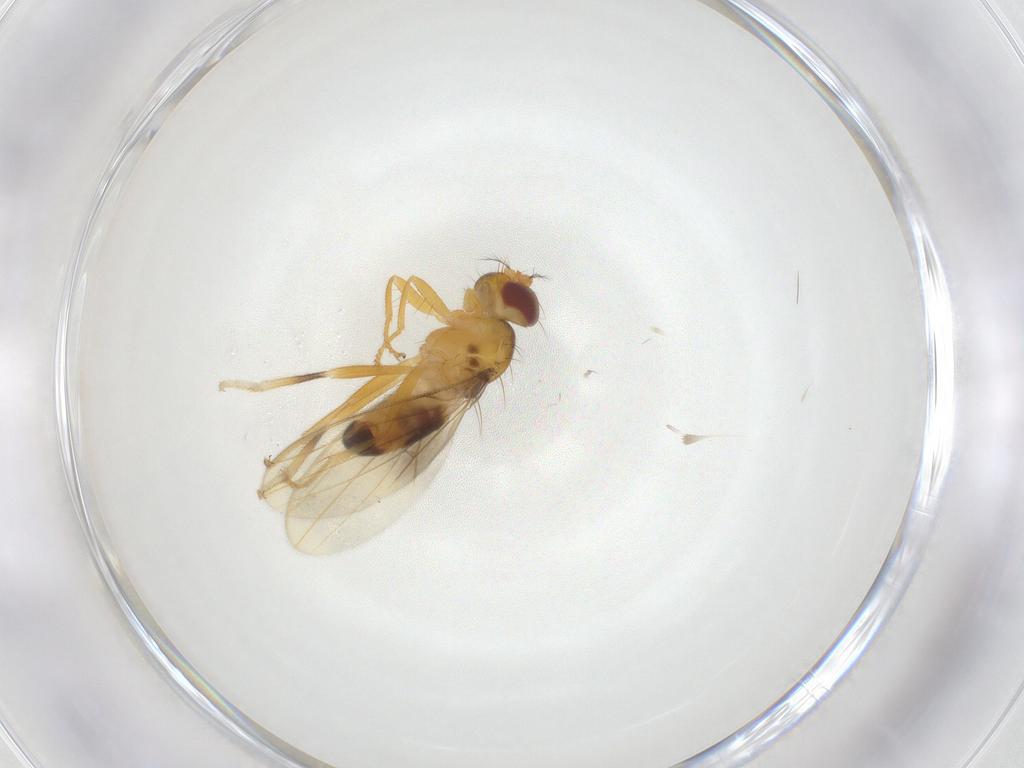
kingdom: Animalia
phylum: Arthropoda
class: Insecta
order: Diptera
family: Periscelididae
